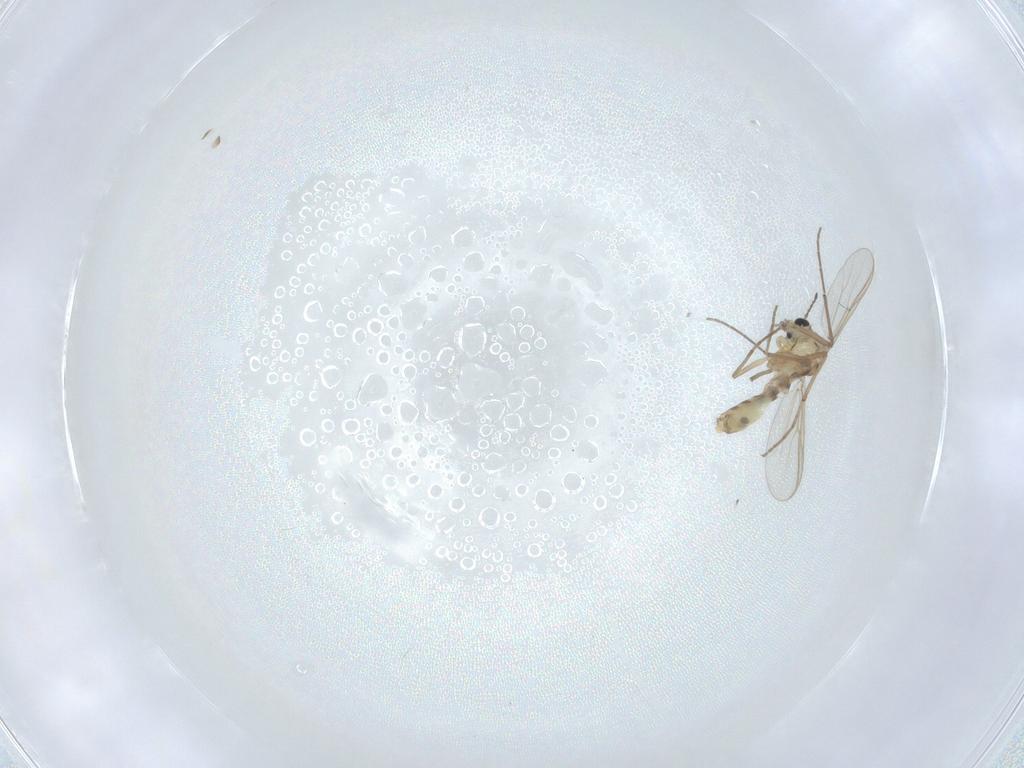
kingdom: Animalia
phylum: Arthropoda
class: Insecta
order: Diptera
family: Chironomidae
